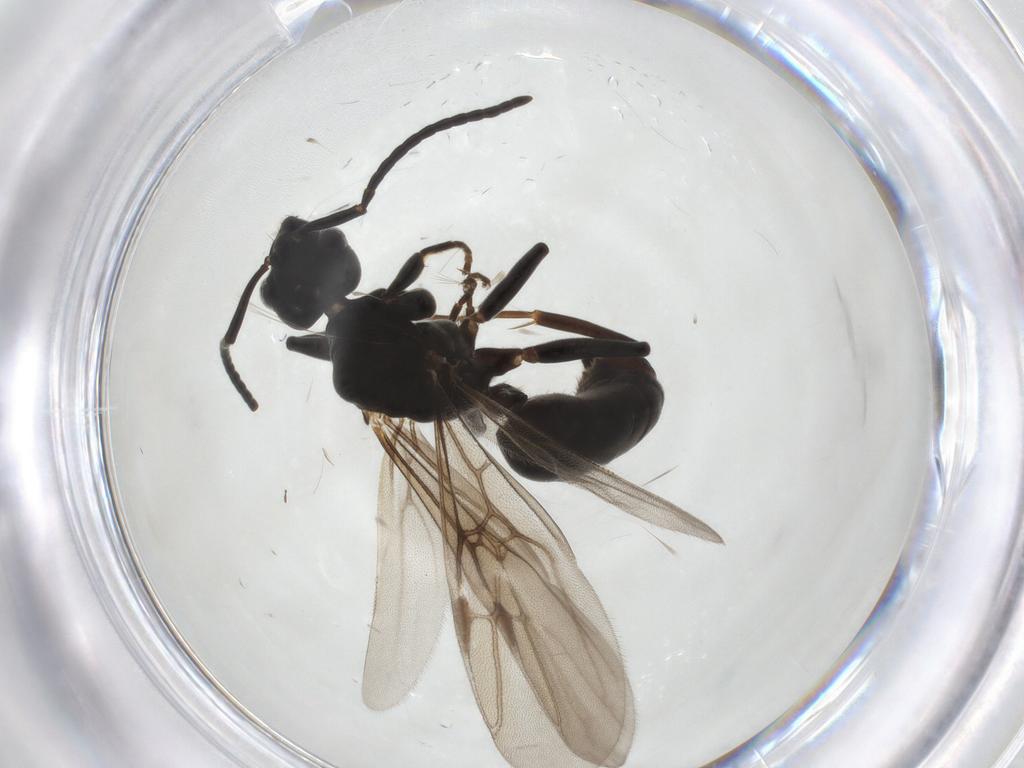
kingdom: Animalia
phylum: Arthropoda
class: Insecta
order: Hymenoptera
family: Formicidae
